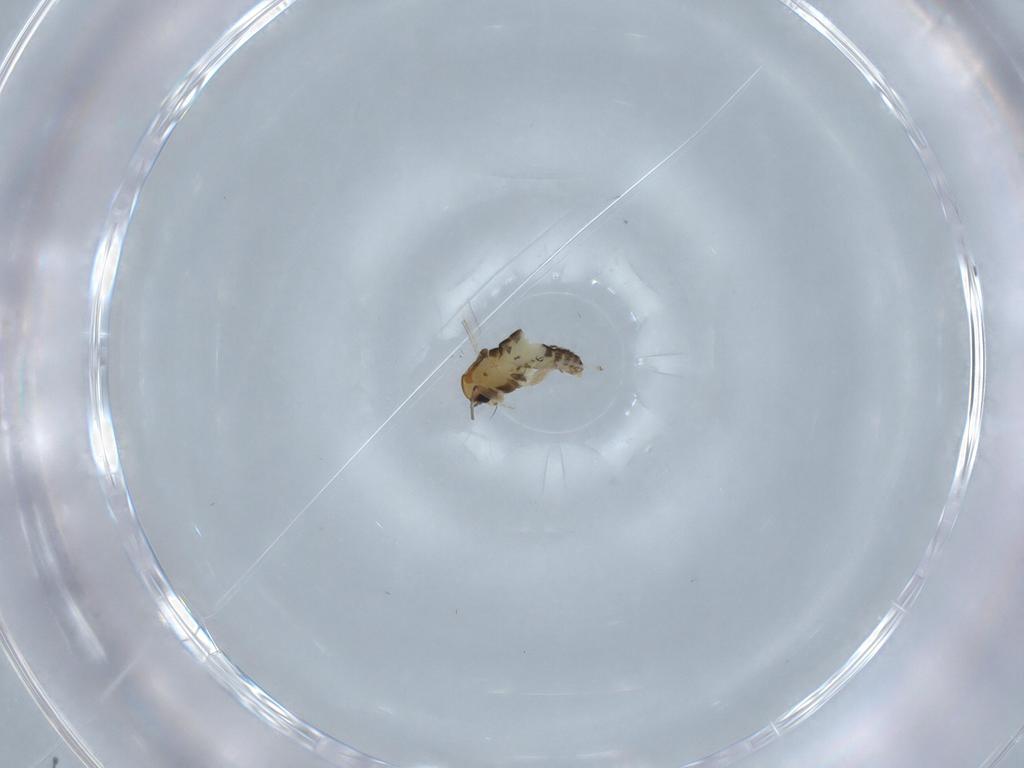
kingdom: Animalia
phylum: Arthropoda
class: Insecta
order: Diptera
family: Chironomidae
